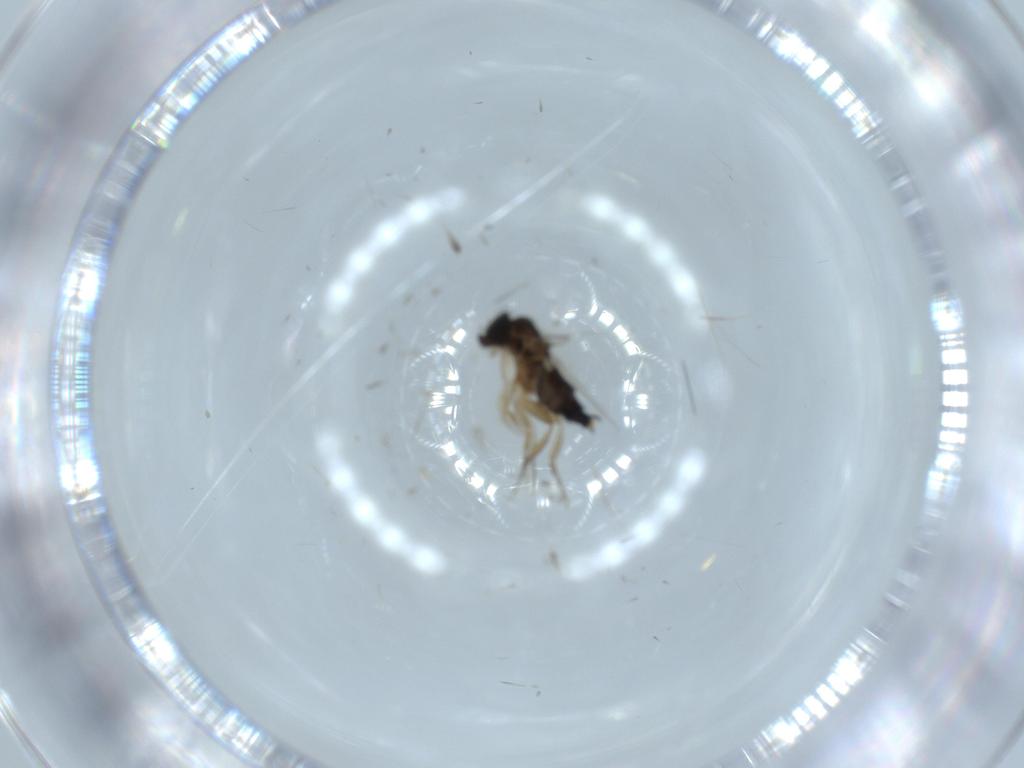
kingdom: Animalia
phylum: Arthropoda
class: Insecta
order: Diptera
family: Phoridae
